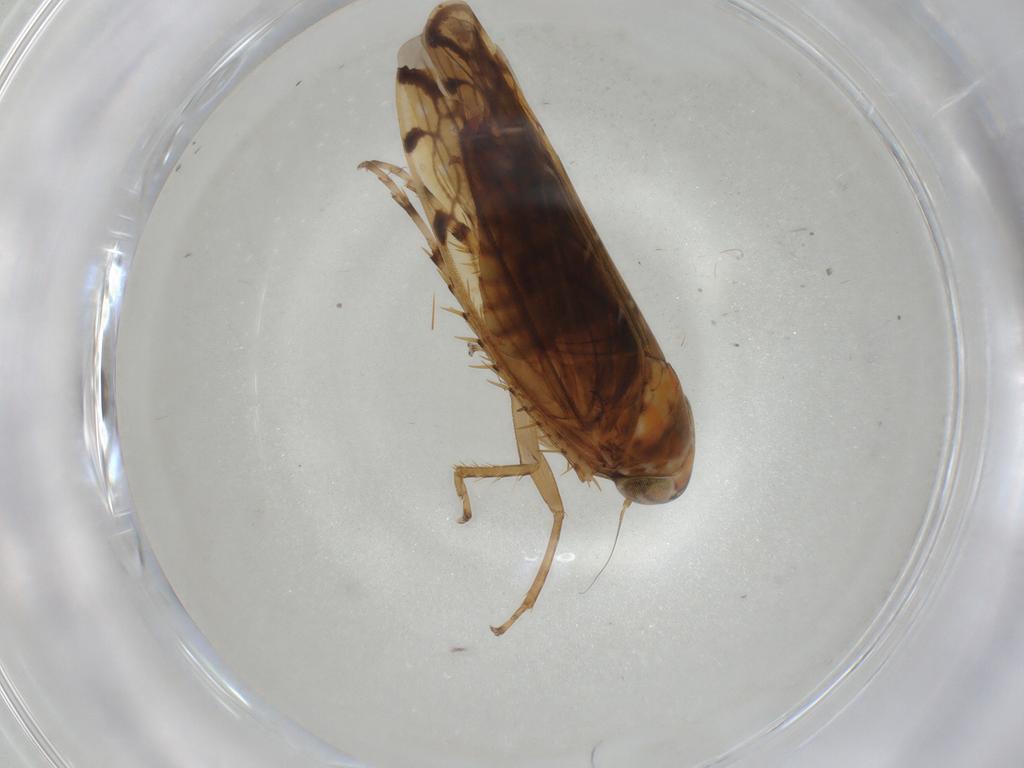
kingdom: Animalia
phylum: Arthropoda
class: Insecta
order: Hemiptera
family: Cicadellidae
